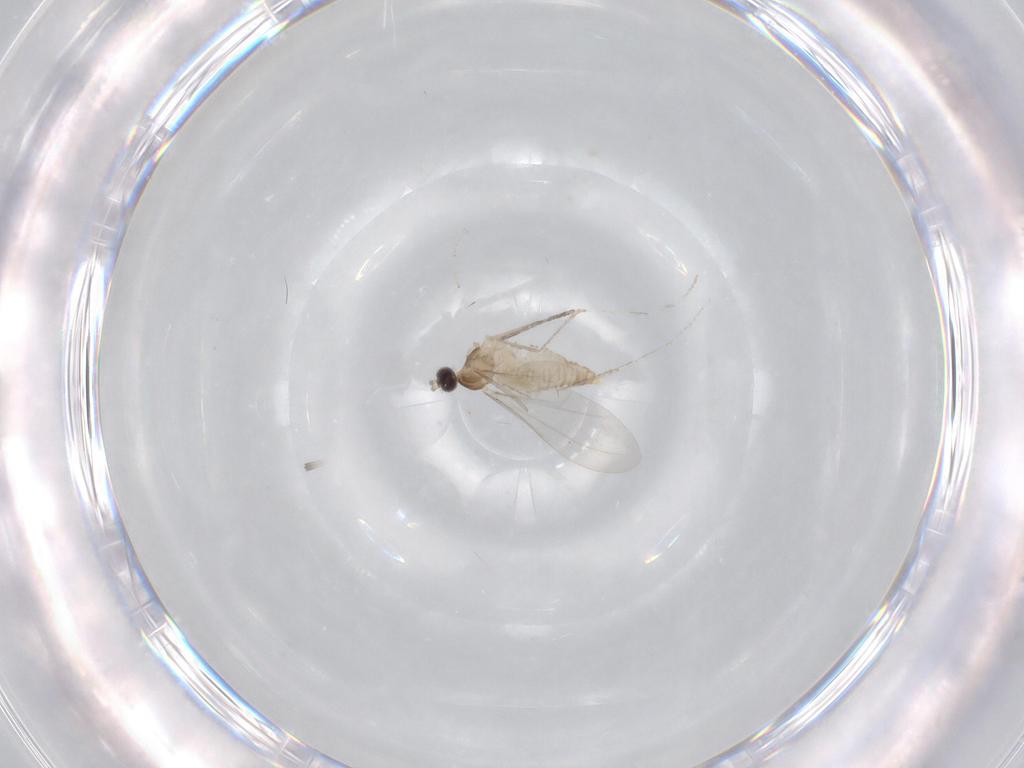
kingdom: Animalia
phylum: Arthropoda
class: Insecta
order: Diptera
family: Cecidomyiidae
